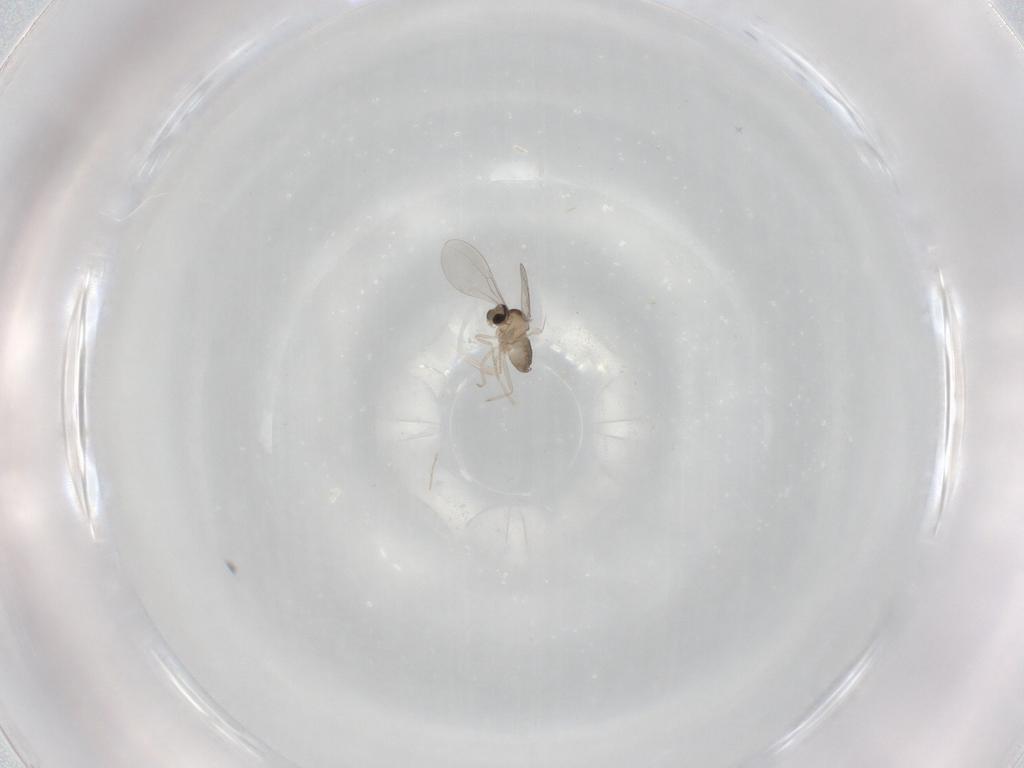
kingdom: Animalia
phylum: Arthropoda
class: Insecta
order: Diptera
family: Cecidomyiidae
